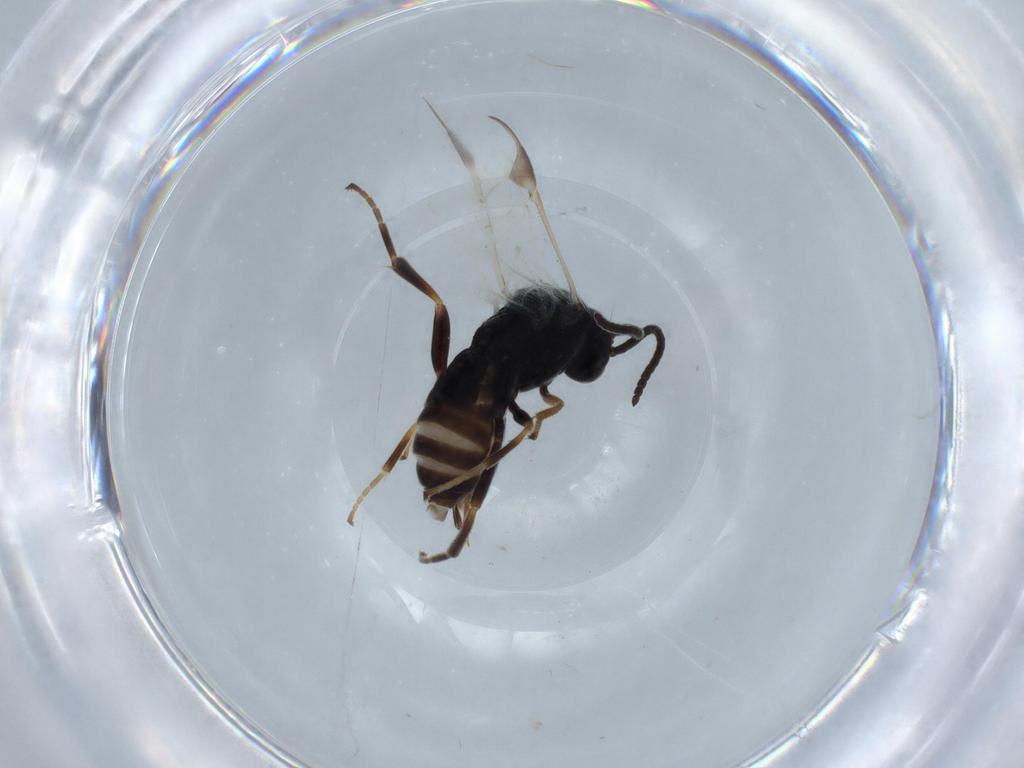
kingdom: Animalia
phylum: Arthropoda
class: Insecta
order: Hymenoptera
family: Braconidae
